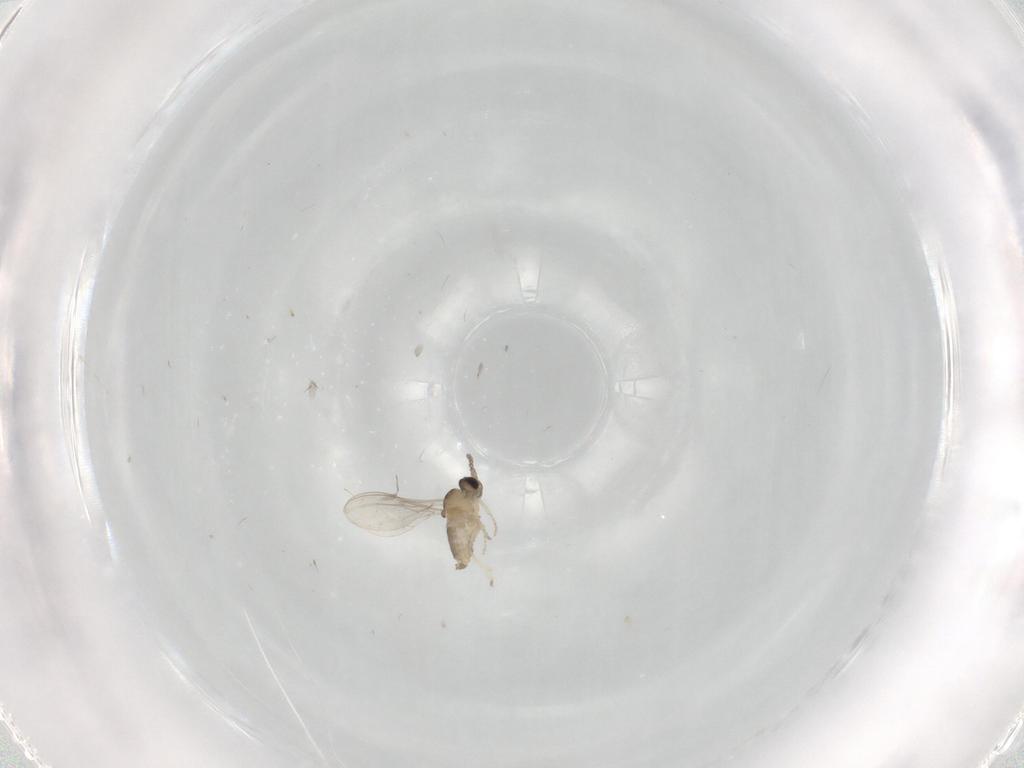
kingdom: Animalia
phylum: Arthropoda
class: Insecta
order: Diptera
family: Cecidomyiidae
